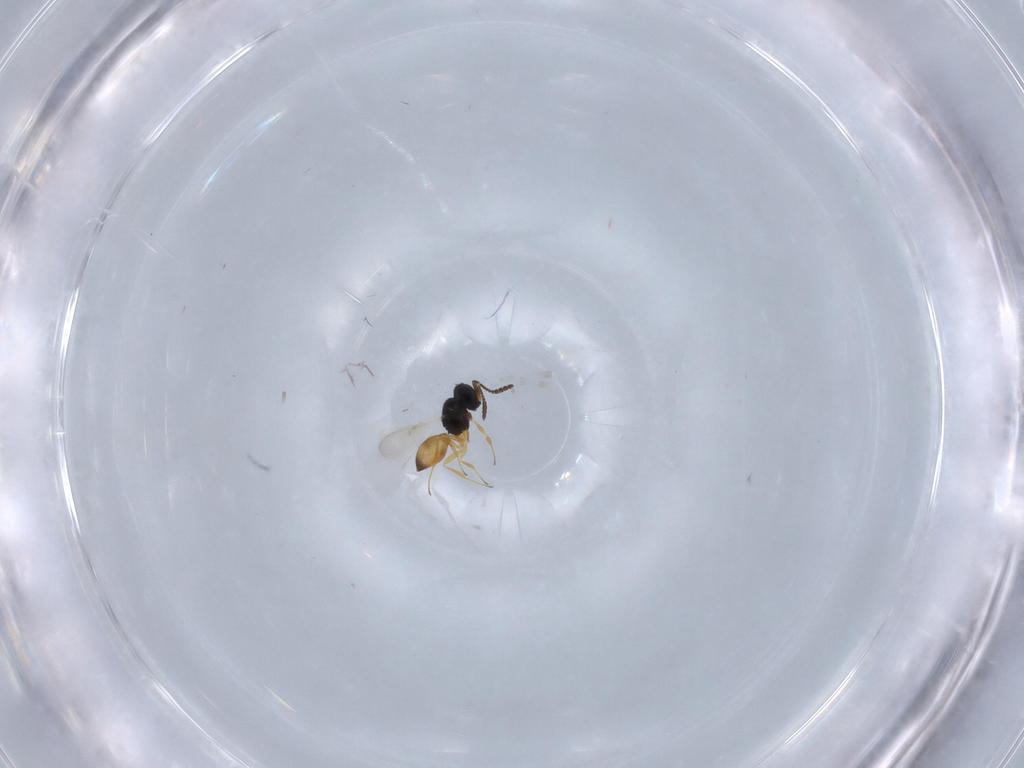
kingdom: Animalia
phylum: Arthropoda
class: Insecta
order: Hymenoptera
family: Scelionidae
